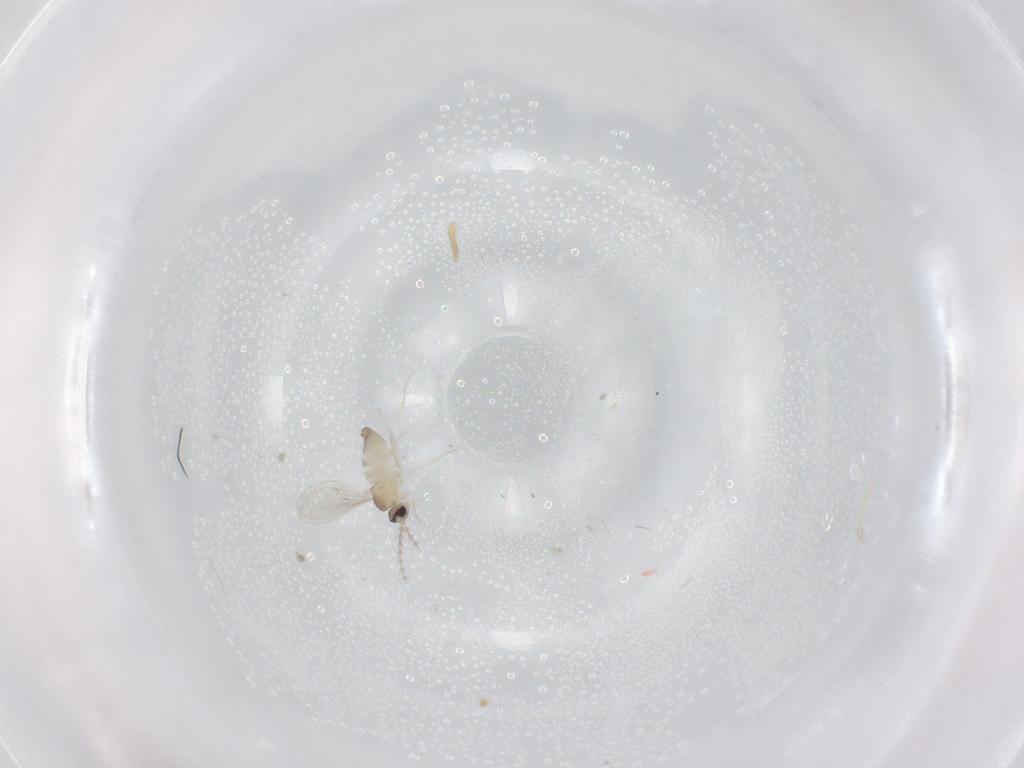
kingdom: Animalia
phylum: Arthropoda
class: Insecta
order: Diptera
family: Cecidomyiidae
